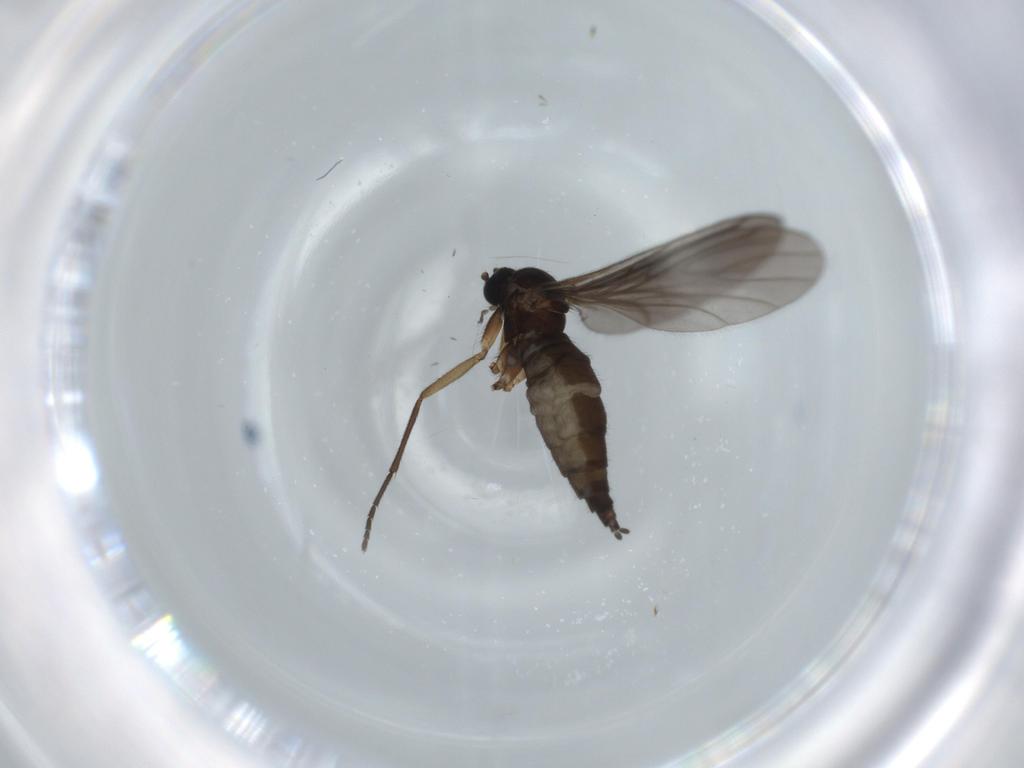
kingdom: Animalia
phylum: Arthropoda
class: Insecta
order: Diptera
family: Sciaridae
